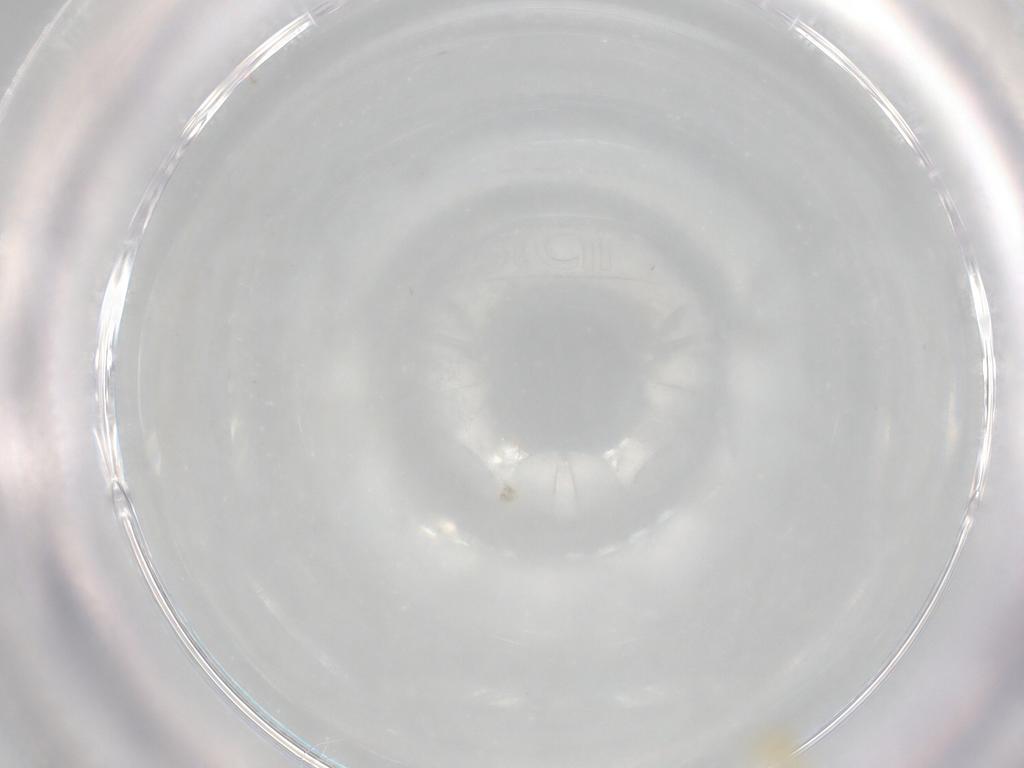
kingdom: Animalia
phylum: Arthropoda
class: Insecta
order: Hemiptera
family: Cixiidae
